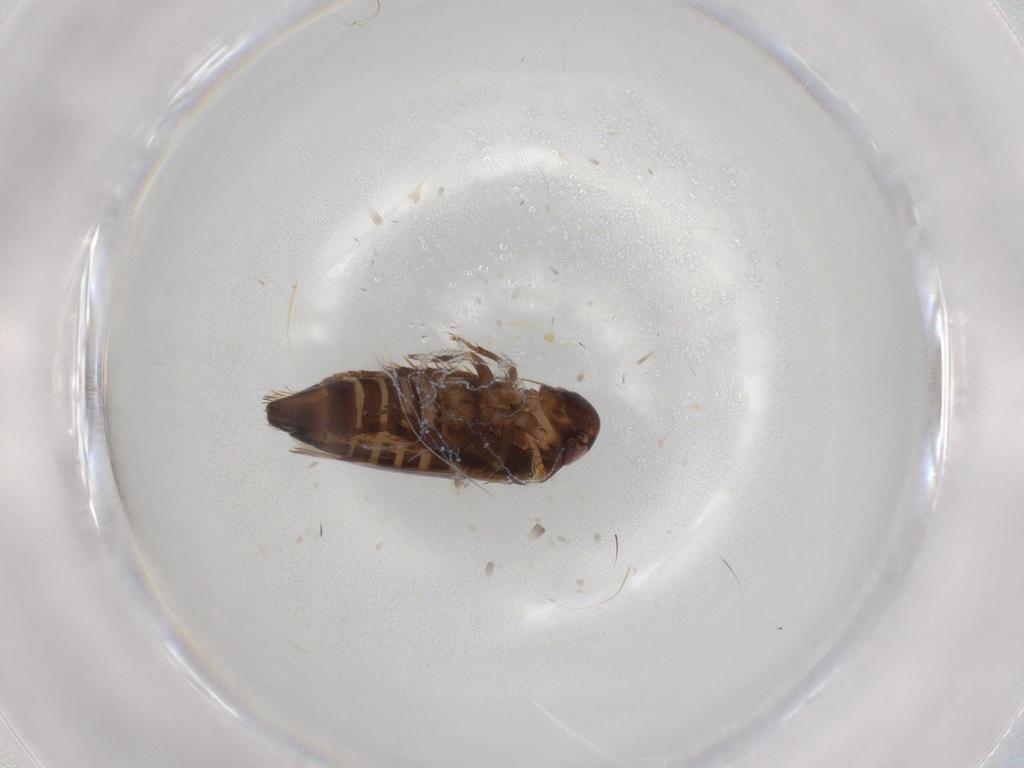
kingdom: Animalia
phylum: Arthropoda
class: Insecta
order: Hemiptera
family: Cicadellidae
